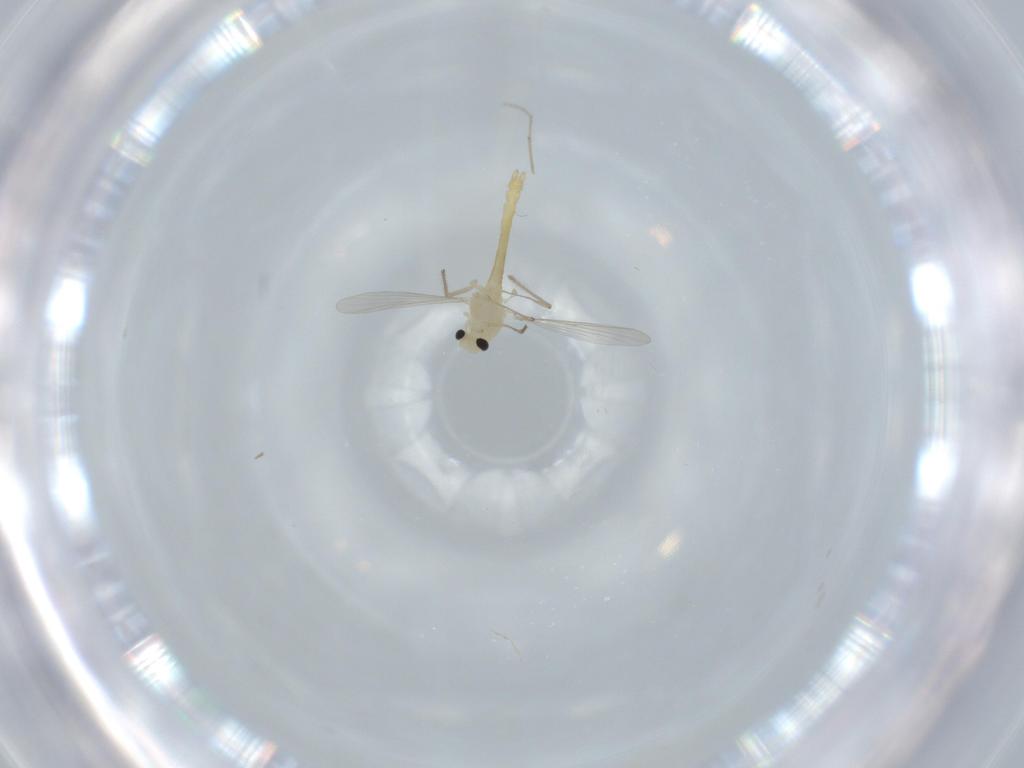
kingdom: Animalia
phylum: Arthropoda
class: Insecta
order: Diptera
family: Chironomidae
